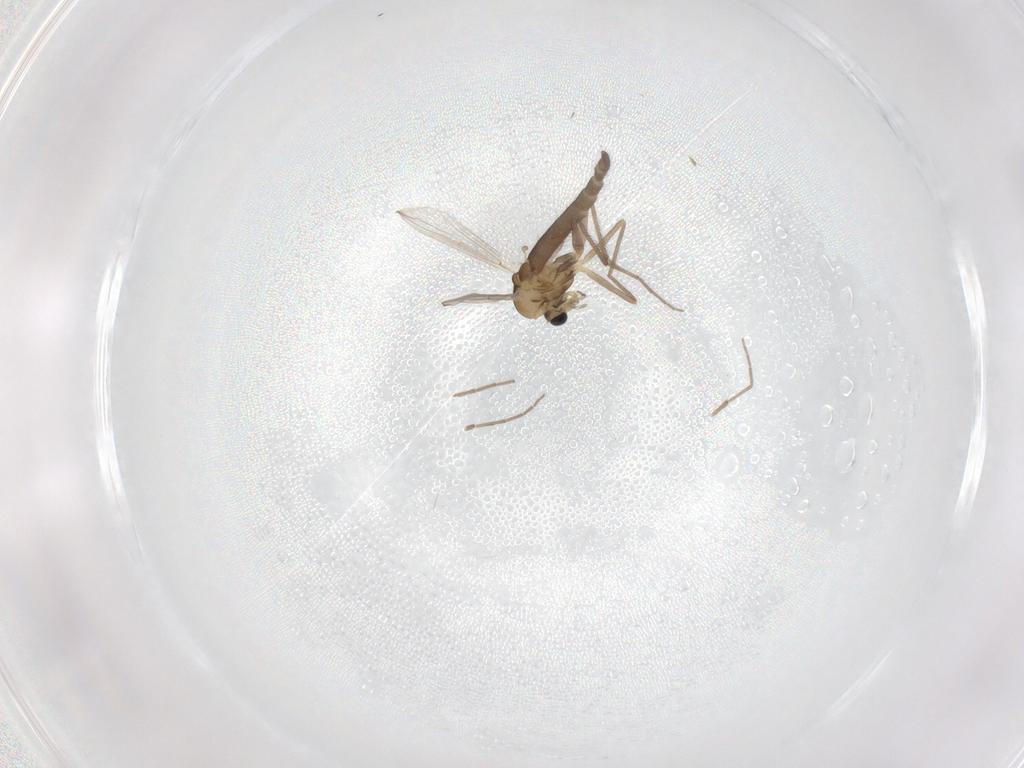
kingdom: Animalia
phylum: Arthropoda
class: Insecta
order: Diptera
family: Chironomidae
